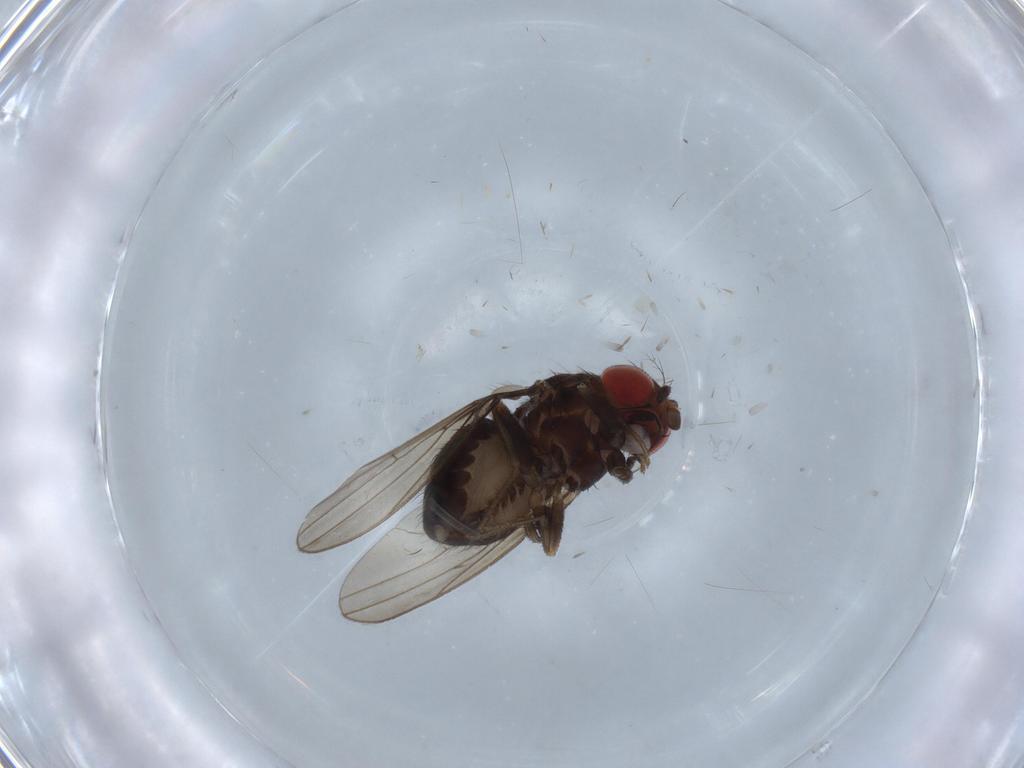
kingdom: Animalia
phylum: Arthropoda
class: Insecta
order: Diptera
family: Drosophilidae
